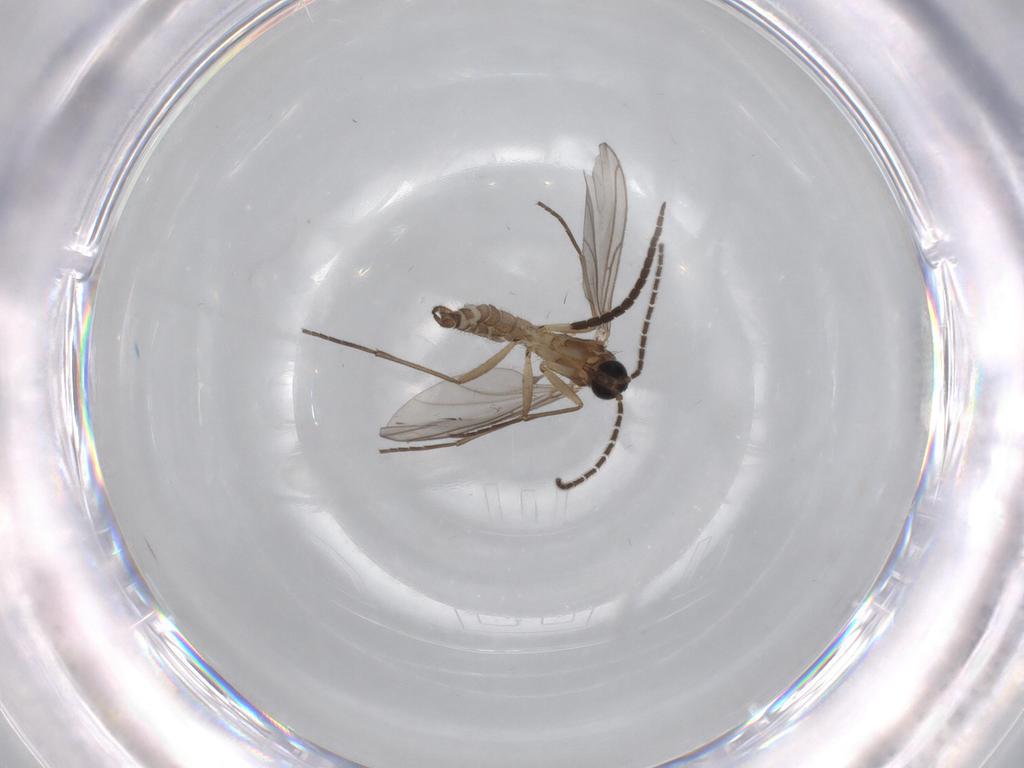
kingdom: Animalia
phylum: Arthropoda
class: Insecta
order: Diptera
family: Sciaridae
